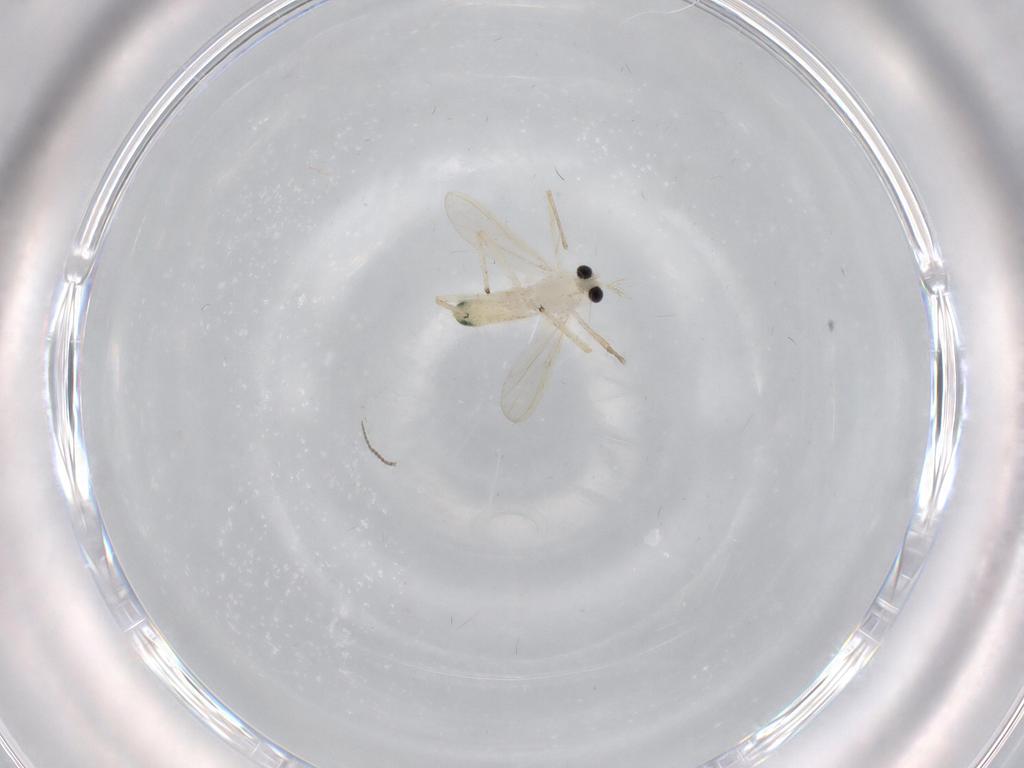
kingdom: Animalia
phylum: Arthropoda
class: Insecta
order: Diptera
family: Chironomidae
